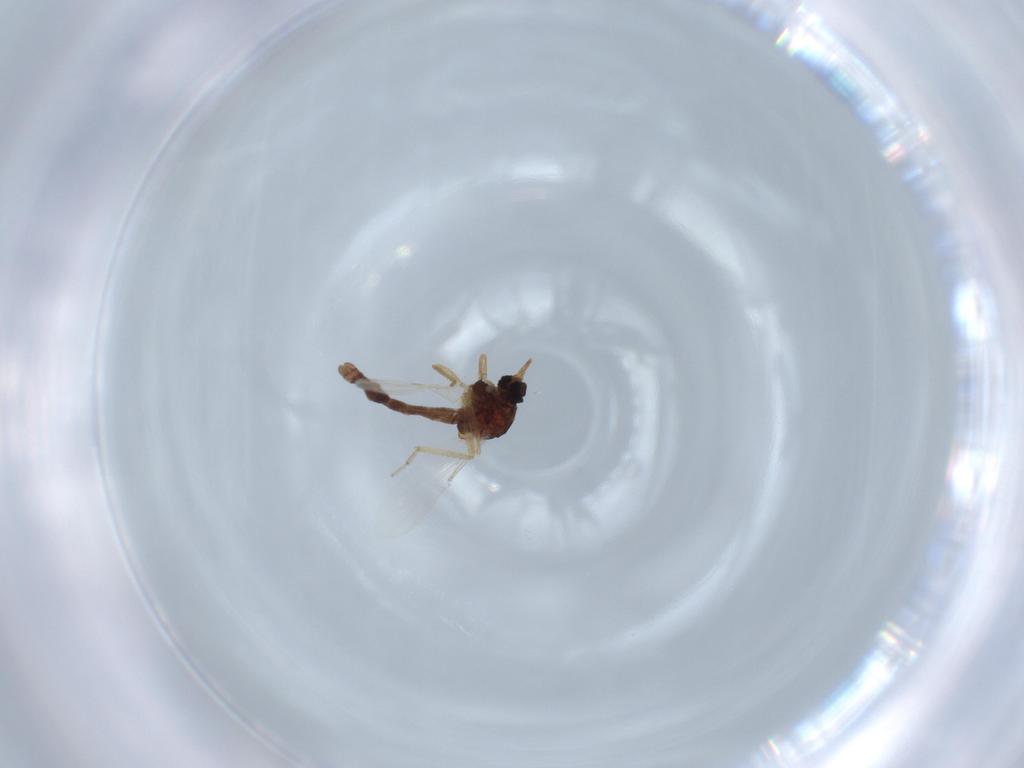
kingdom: Animalia
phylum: Arthropoda
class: Insecta
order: Diptera
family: Ceratopogonidae
